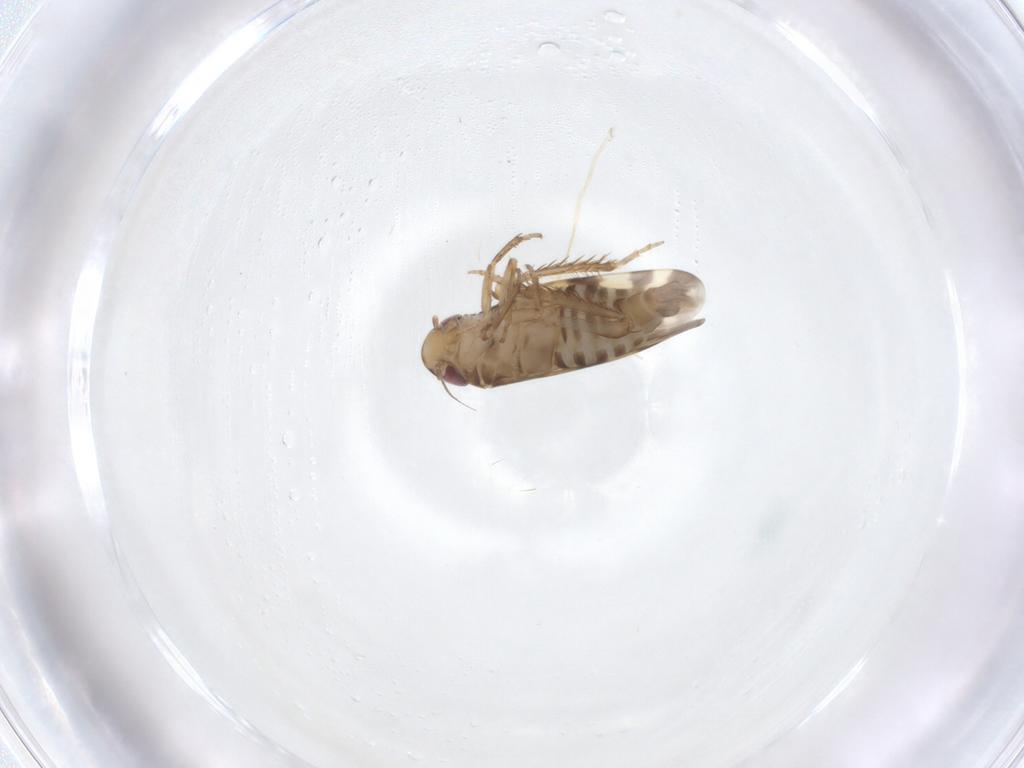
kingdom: Animalia
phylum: Arthropoda
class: Insecta
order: Hemiptera
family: Cicadellidae
